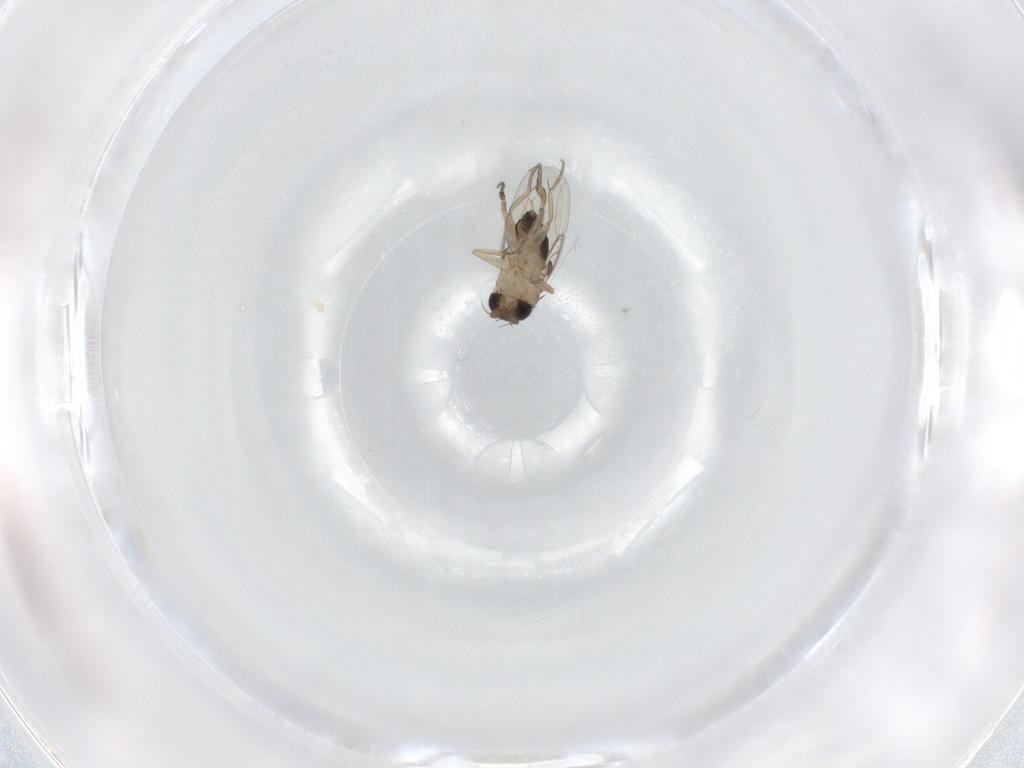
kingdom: Animalia
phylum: Arthropoda
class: Insecta
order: Diptera
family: Phoridae
